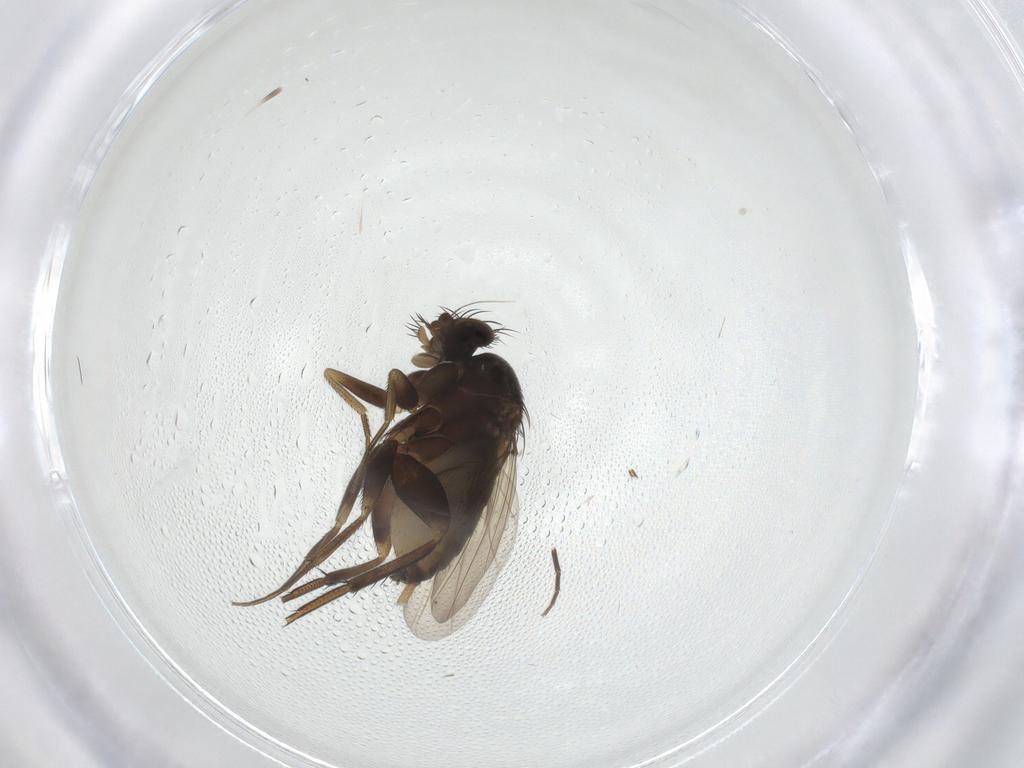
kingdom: Animalia
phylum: Arthropoda
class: Insecta
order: Diptera
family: Phoridae
